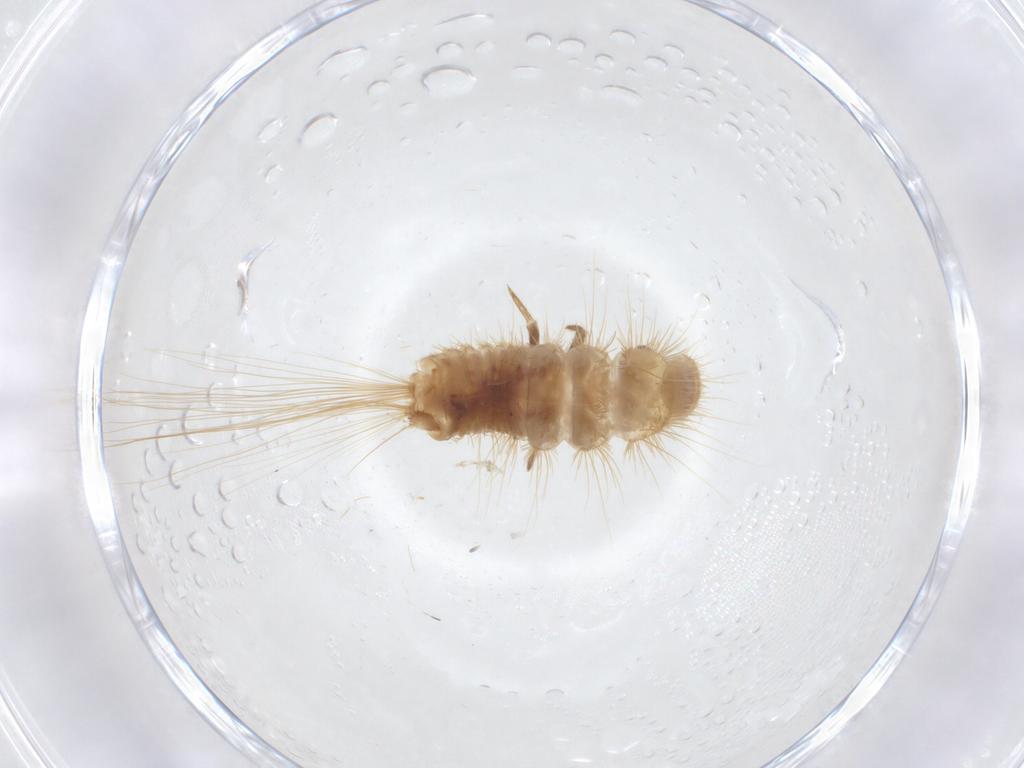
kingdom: Animalia
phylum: Arthropoda
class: Insecta
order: Coleoptera
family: Dermestidae
